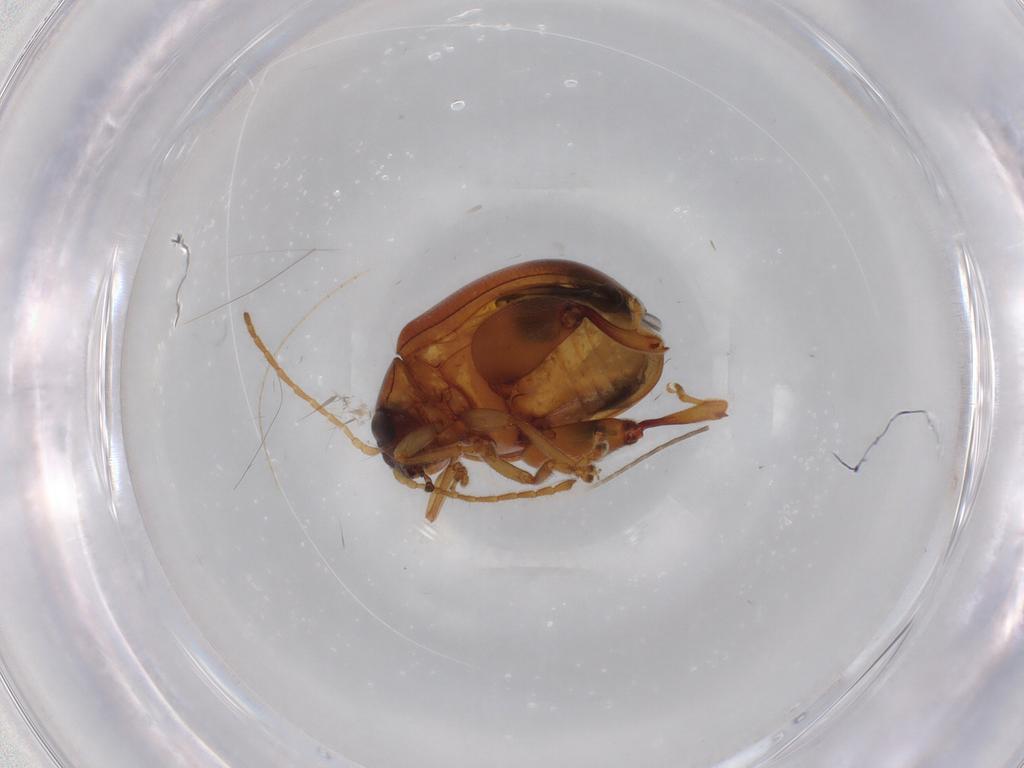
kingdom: Animalia
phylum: Arthropoda
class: Insecta
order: Coleoptera
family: Chrysomelidae
